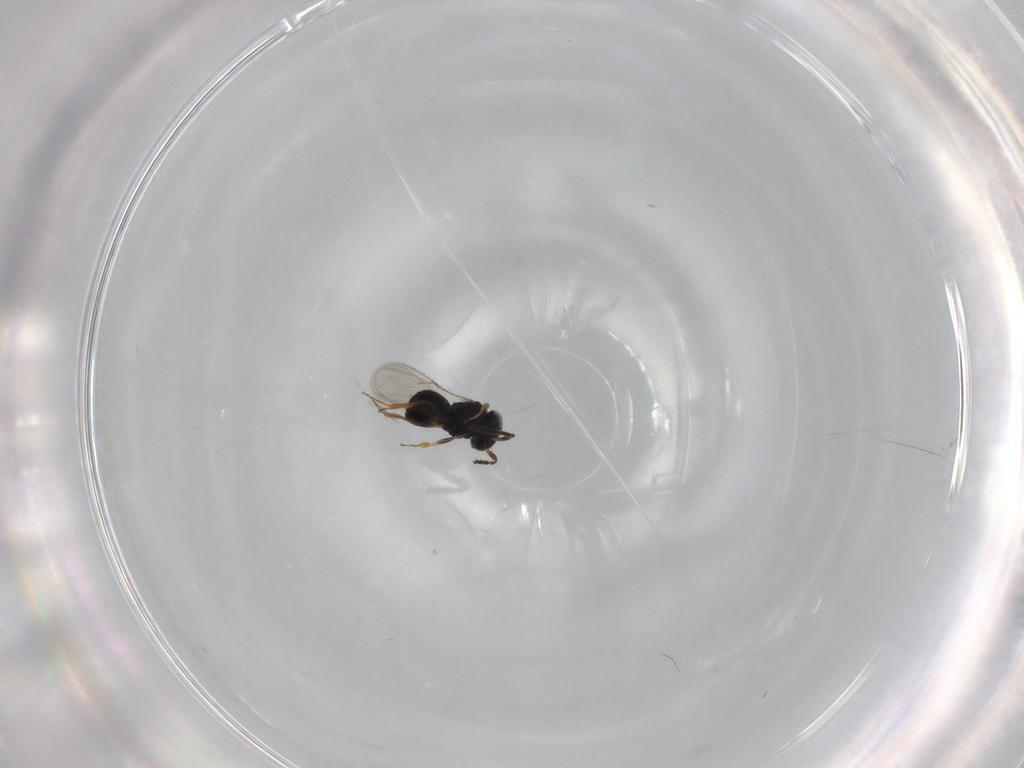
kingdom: Animalia
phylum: Arthropoda
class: Insecta
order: Hymenoptera
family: Scelionidae
